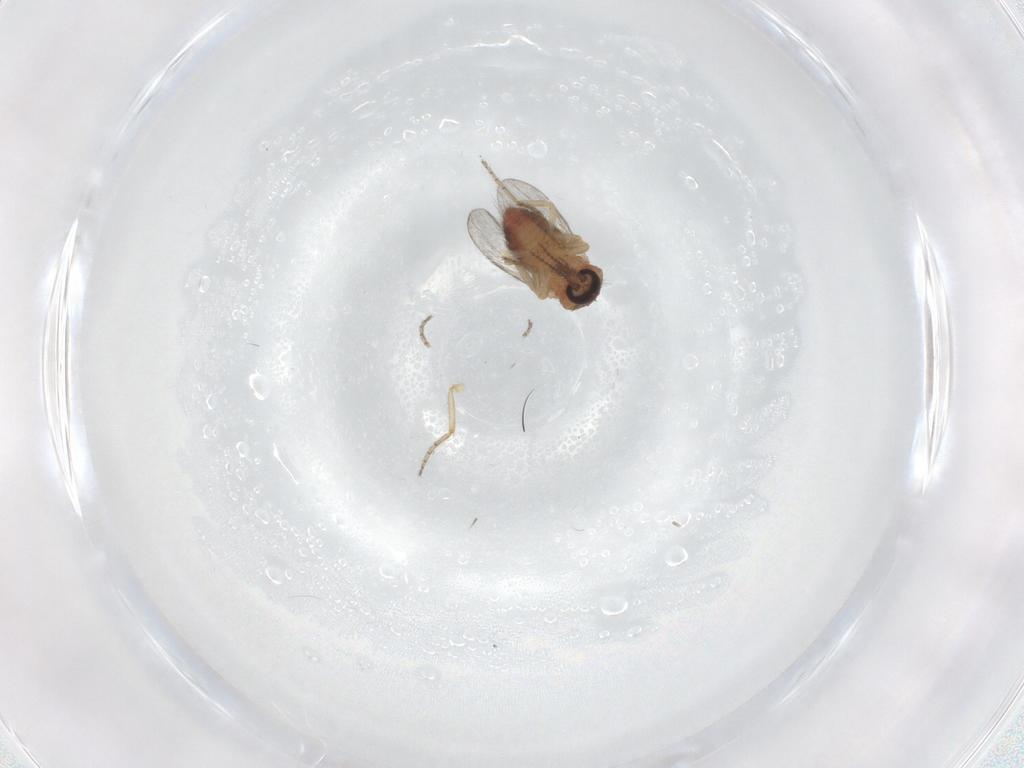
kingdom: Animalia
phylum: Arthropoda
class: Insecta
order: Diptera
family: Ceratopogonidae
